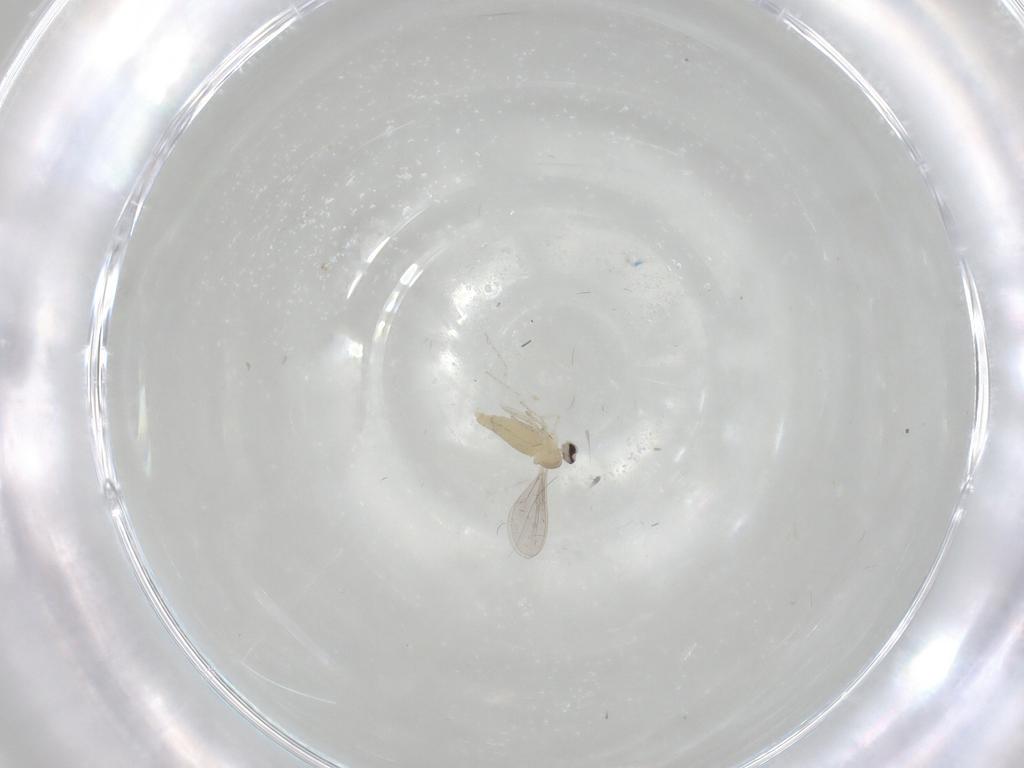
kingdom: Animalia
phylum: Arthropoda
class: Insecta
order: Diptera
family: Cecidomyiidae
